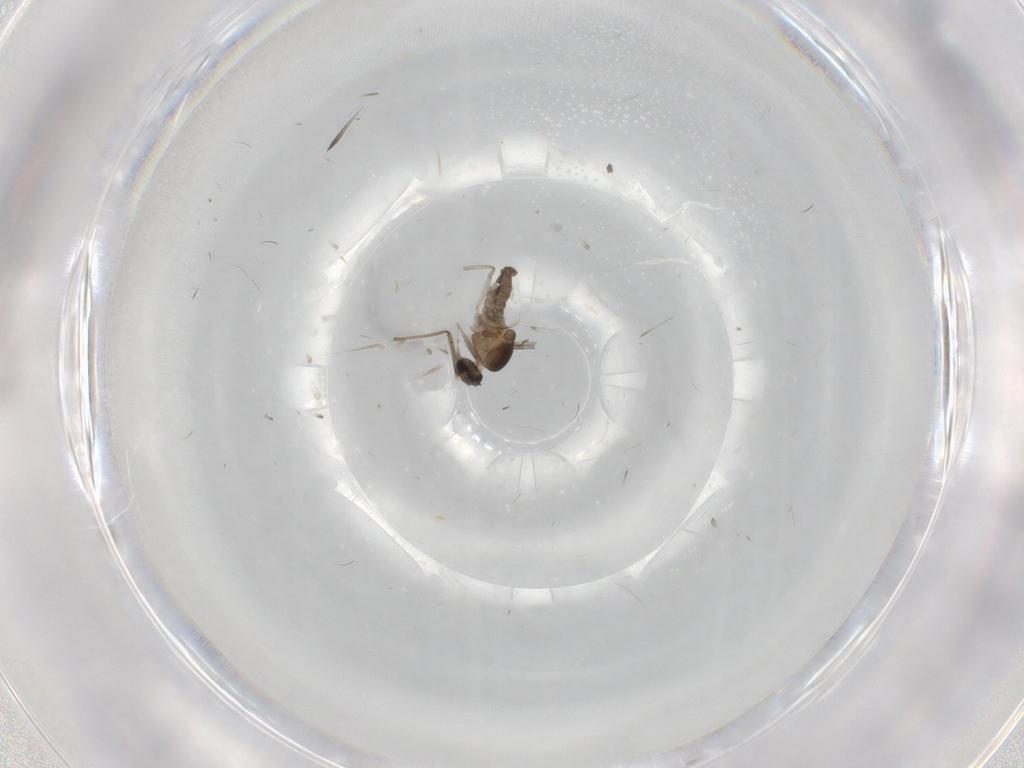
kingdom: Animalia
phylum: Arthropoda
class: Insecta
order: Diptera
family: Cecidomyiidae
